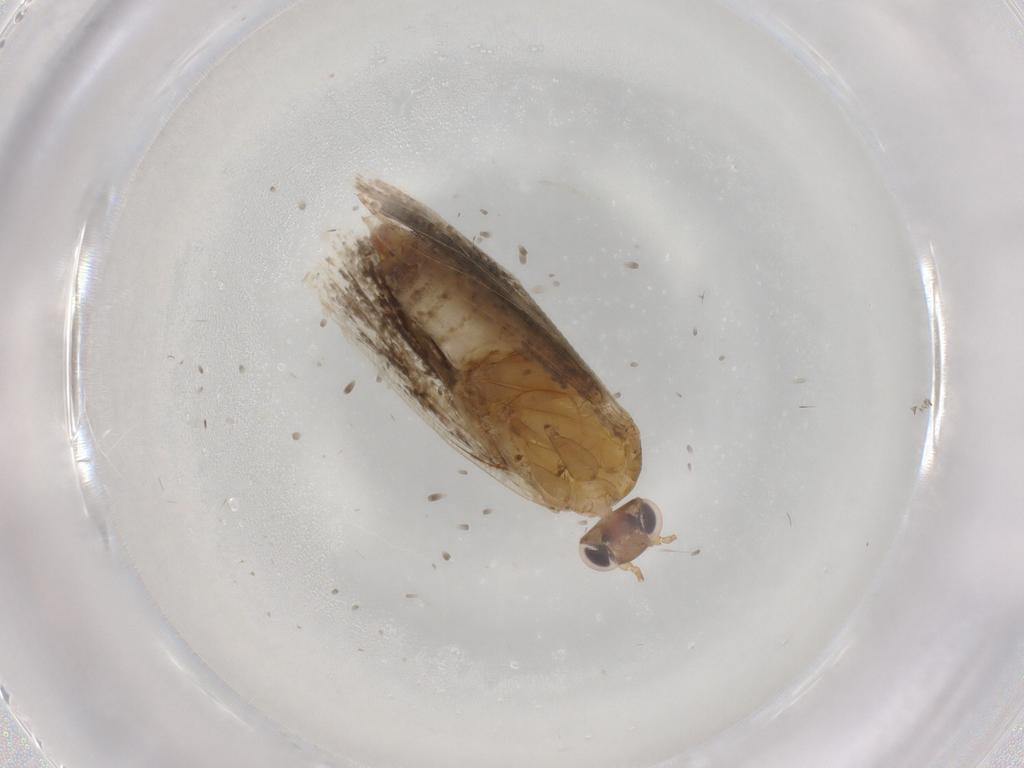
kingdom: Animalia
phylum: Arthropoda
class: Insecta
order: Lepidoptera
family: Tortricidae
